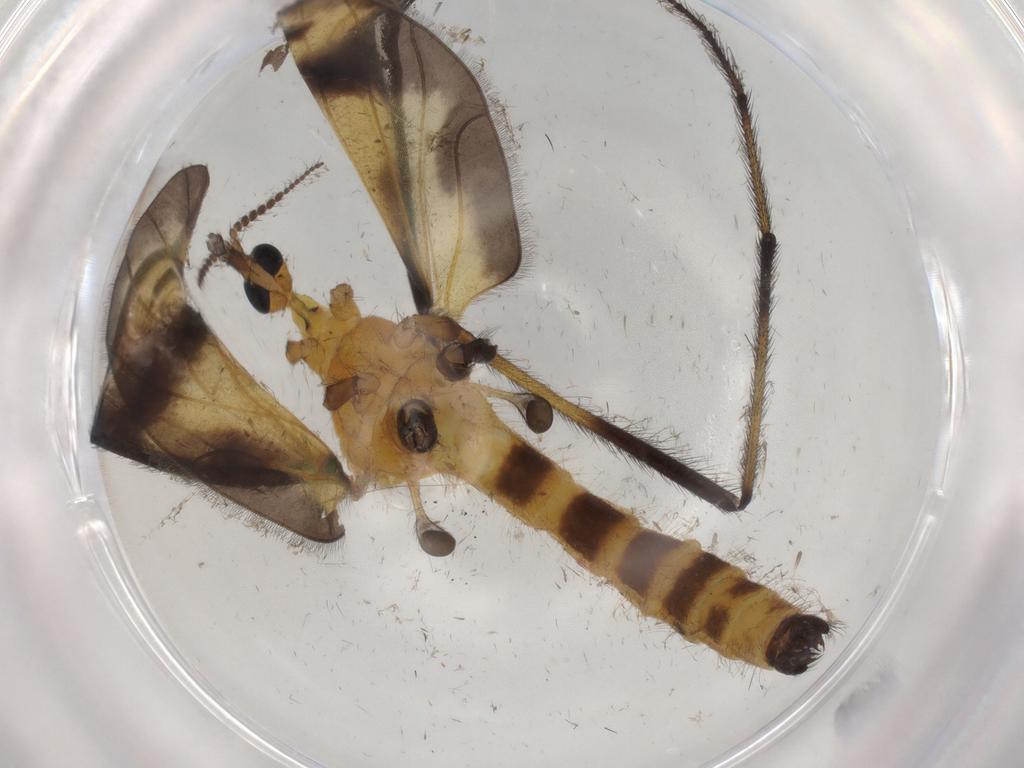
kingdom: Animalia
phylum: Arthropoda
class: Insecta
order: Diptera
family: Limoniidae
